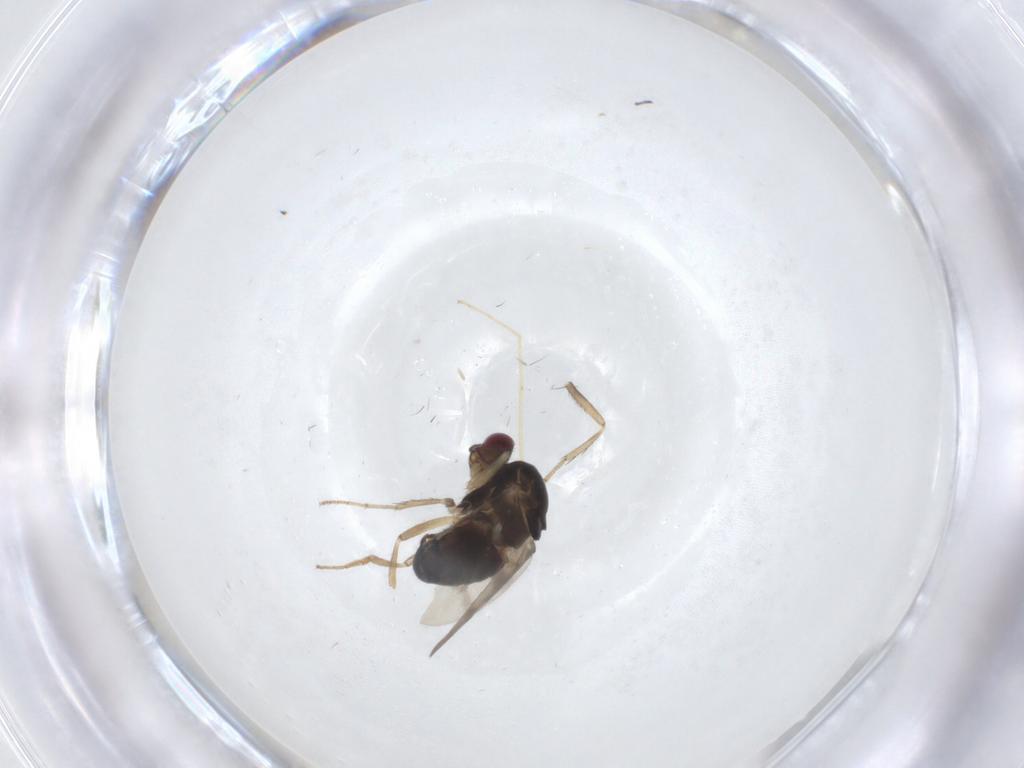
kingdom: Animalia
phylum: Arthropoda
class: Insecta
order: Diptera
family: Sphaeroceridae
